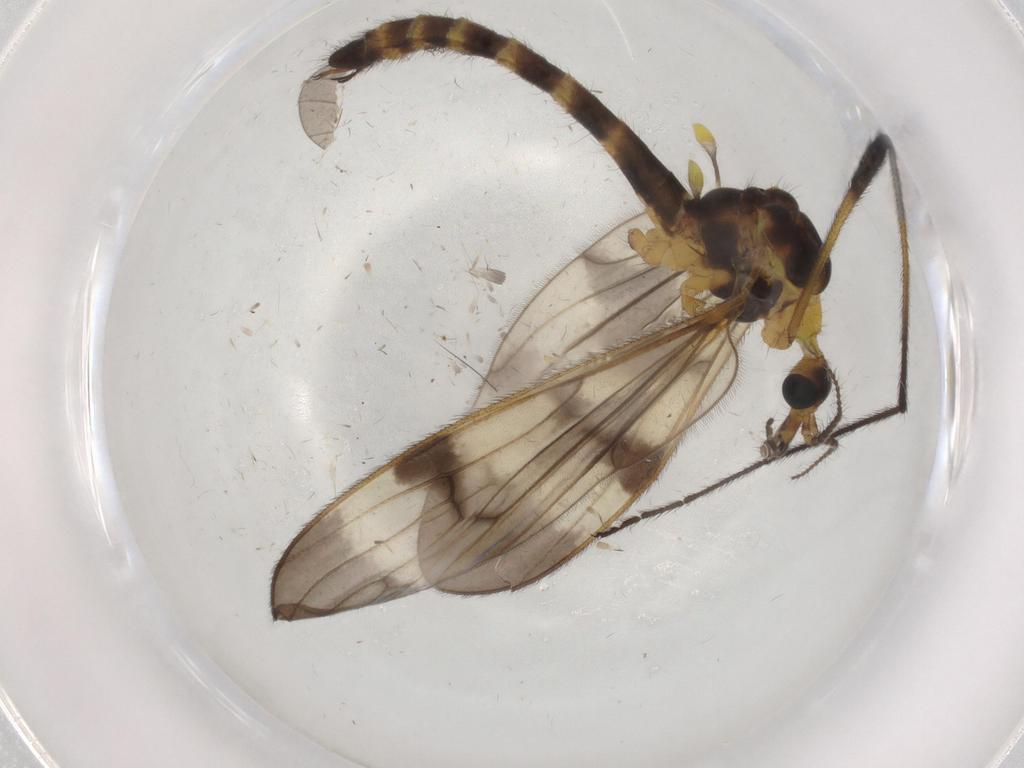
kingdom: Animalia
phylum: Arthropoda
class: Insecta
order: Diptera
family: Limoniidae
